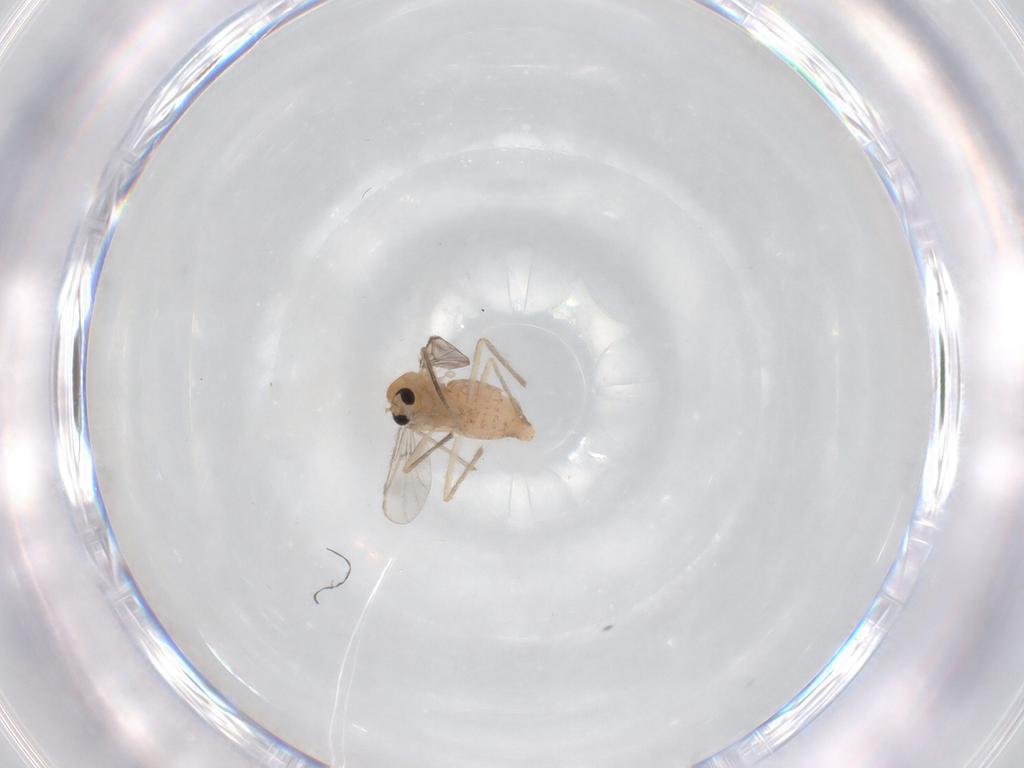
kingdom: Animalia
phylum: Arthropoda
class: Insecta
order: Diptera
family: Chironomidae
